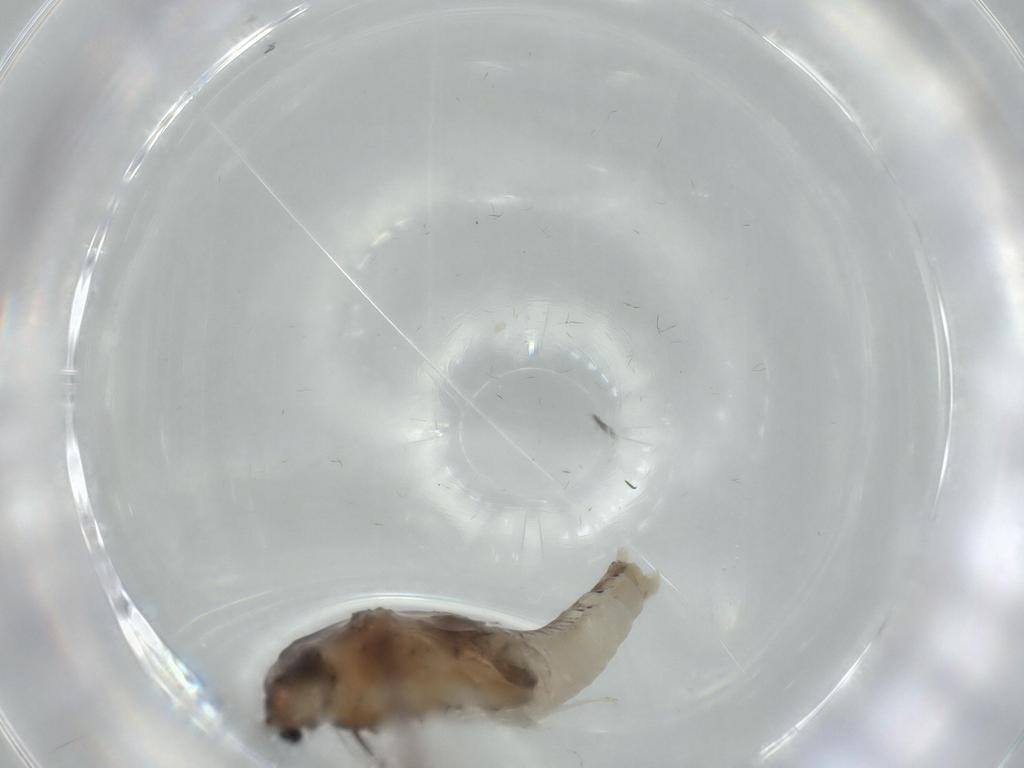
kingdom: Animalia
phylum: Arthropoda
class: Insecta
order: Ephemeroptera
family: Caenidae
